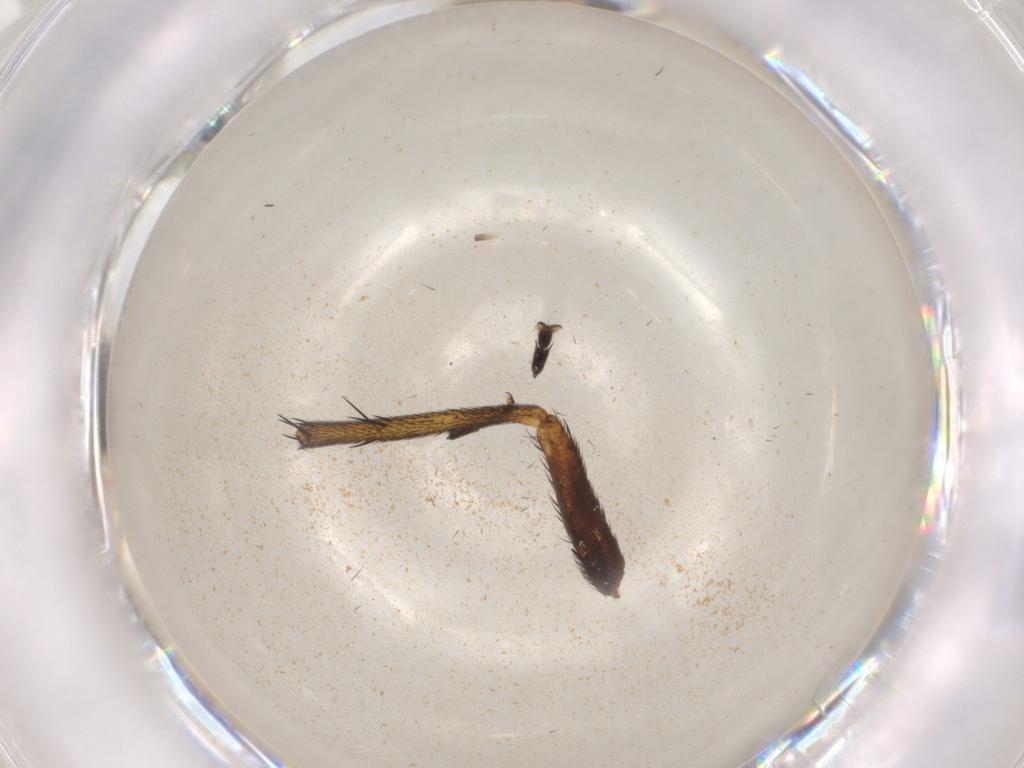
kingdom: Animalia
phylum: Arthropoda
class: Insecta
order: Diptera
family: Anthomyiidae
